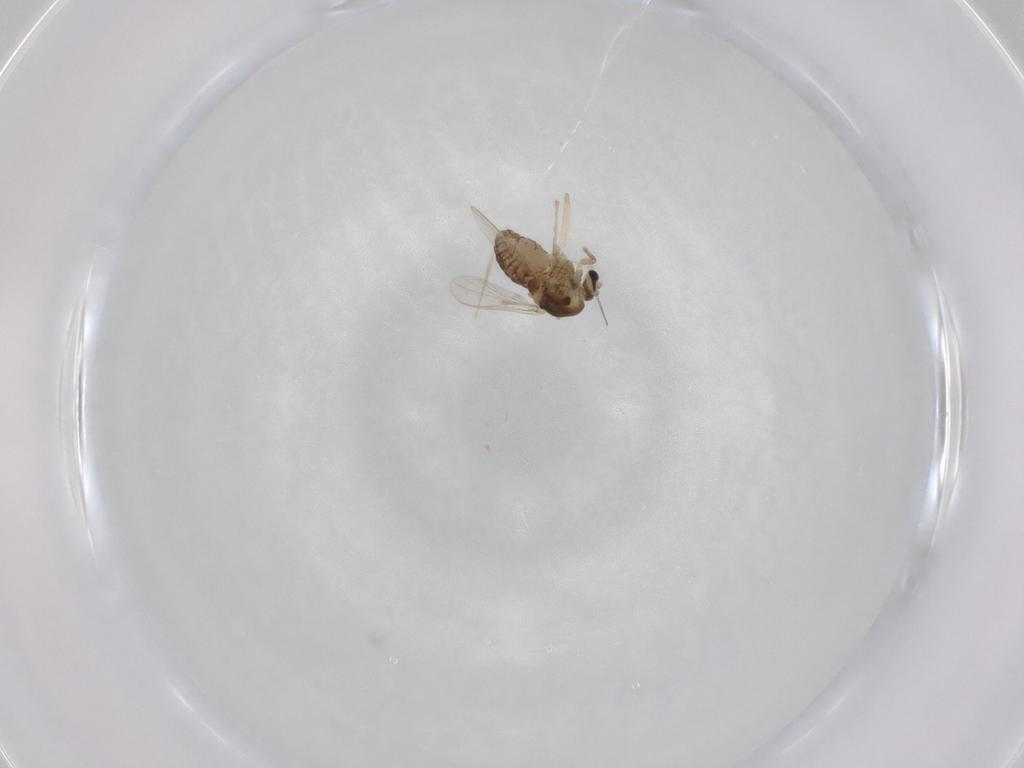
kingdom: Animalia
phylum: Arthropoda
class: Insecta
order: Diptera
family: Chironomidae
